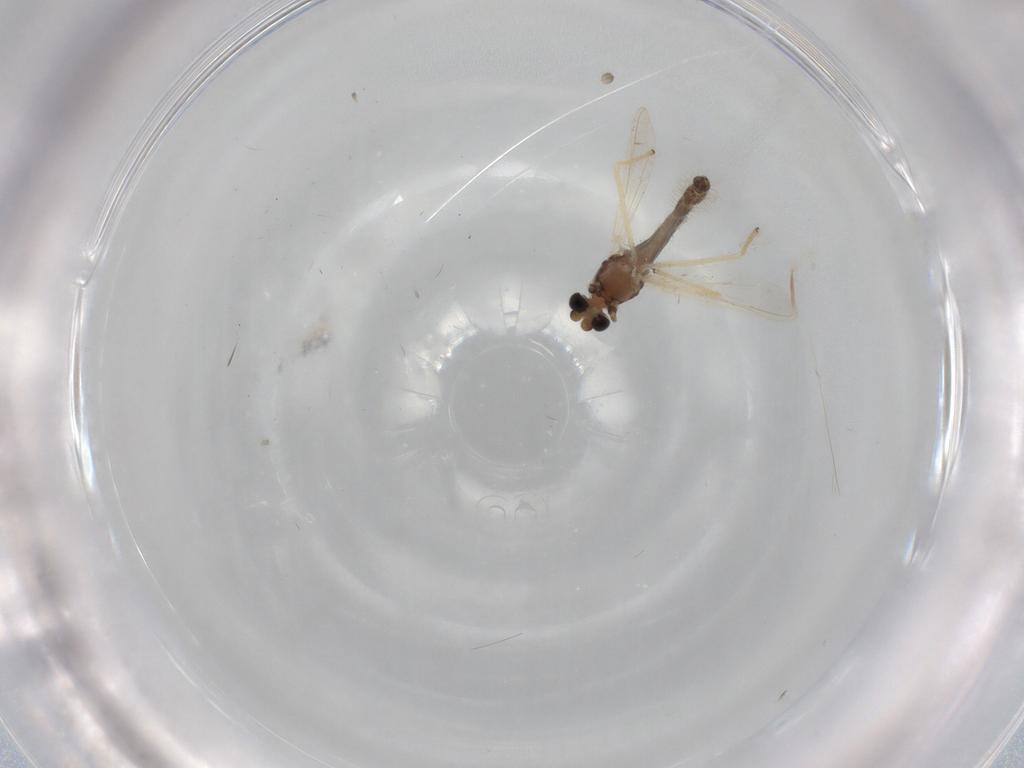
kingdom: Animalia
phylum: Arthropoda
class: Insecta
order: Diptera
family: Chironomidae
